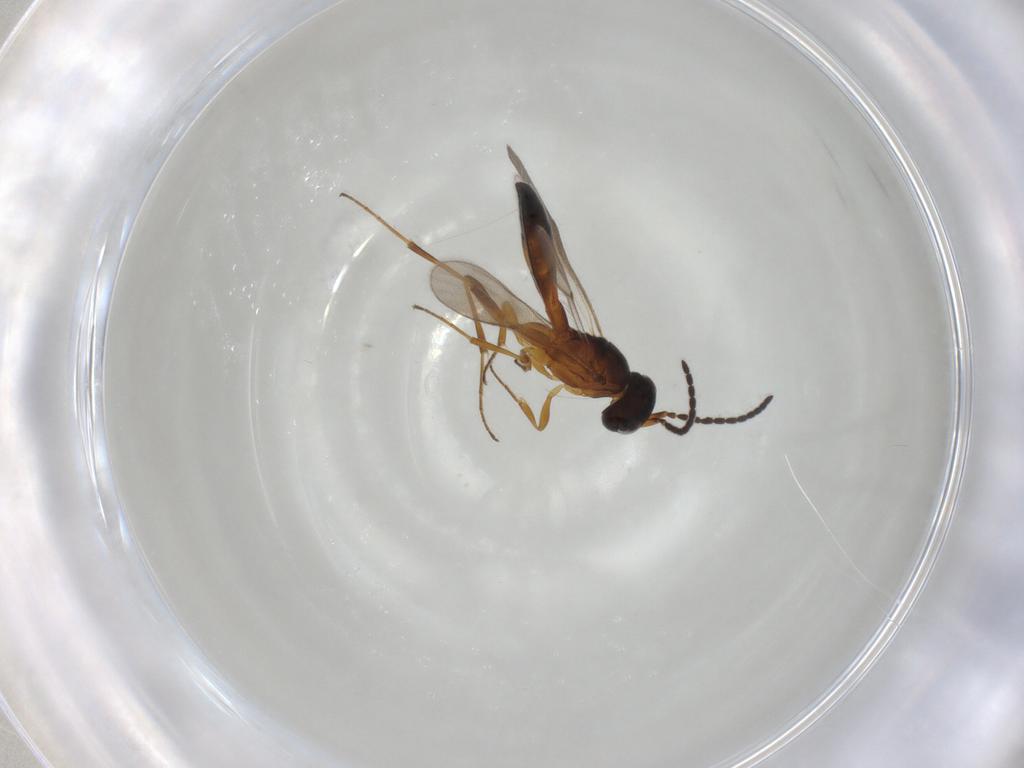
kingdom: Animalia
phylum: Arthropoda
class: Insecta
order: Hymenoptera
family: Scelionidae
